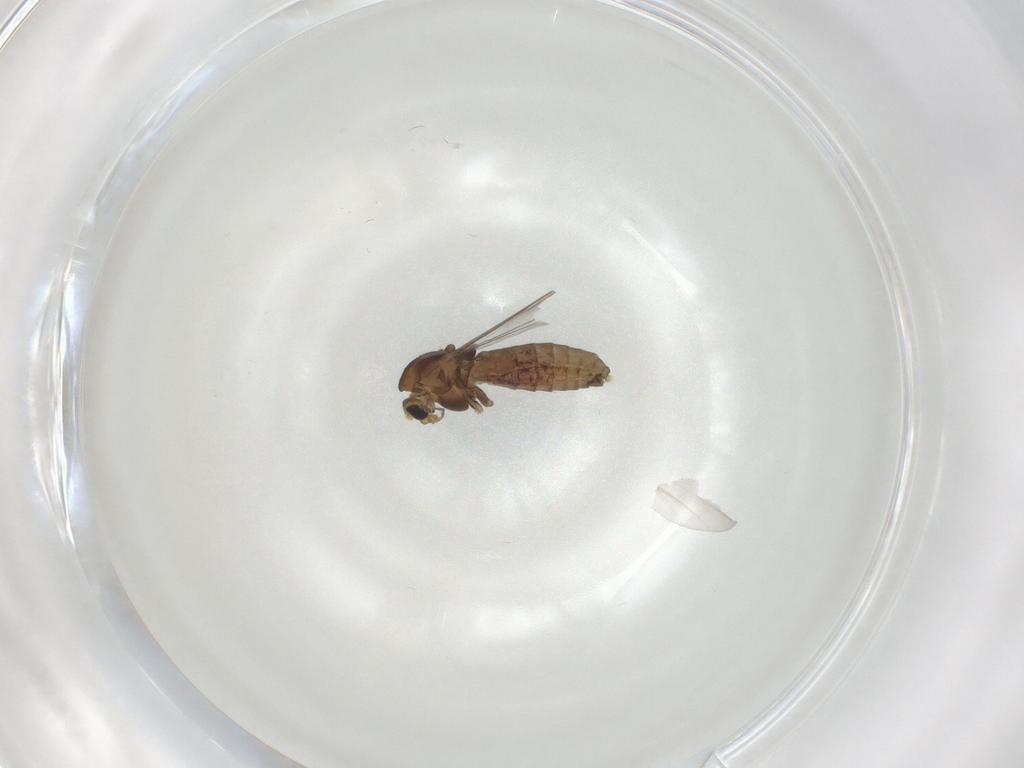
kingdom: Animalia
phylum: Arthropoda
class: Insecta
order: Diptera
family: Chironomidae
